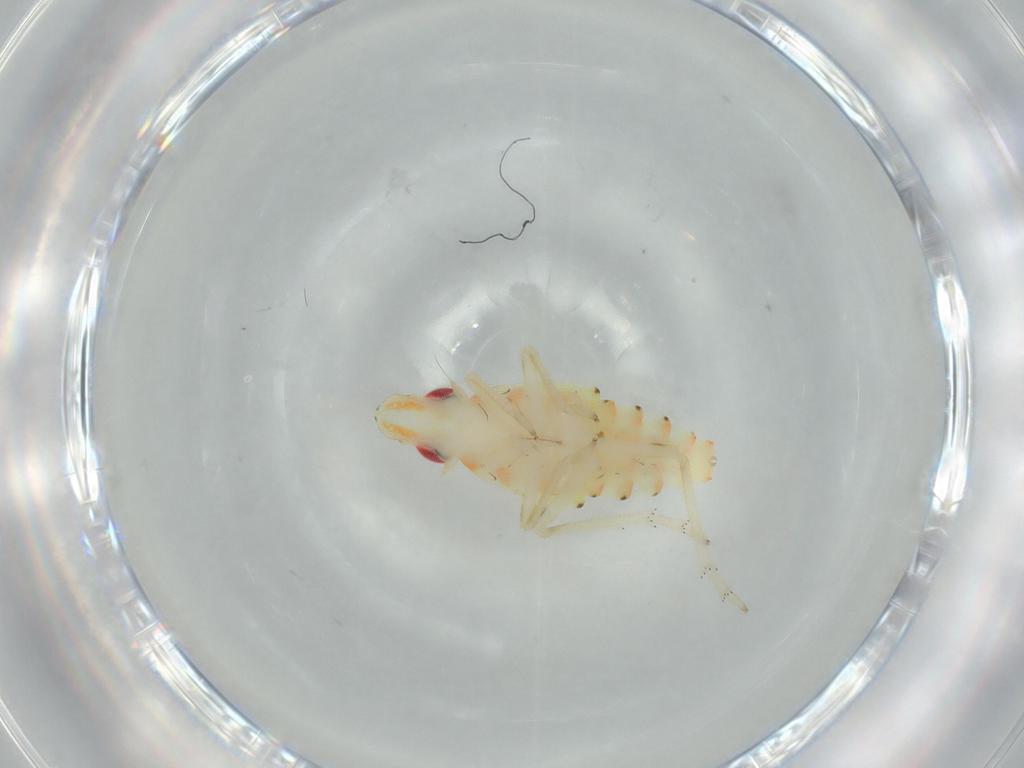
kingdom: Animalia
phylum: Arthropoda
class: Insecta
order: Hemiptera
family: Tropiduchidae
